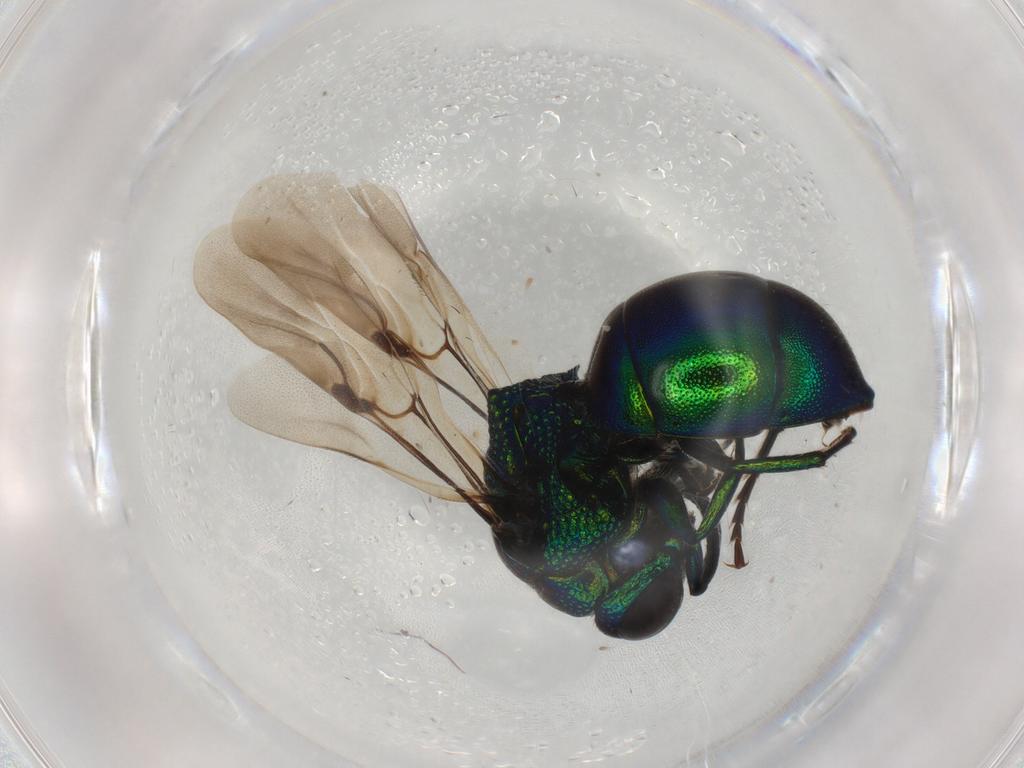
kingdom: Animalia
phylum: Arthropoda
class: Insecta
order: Hymenoptera
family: Chrysididae
